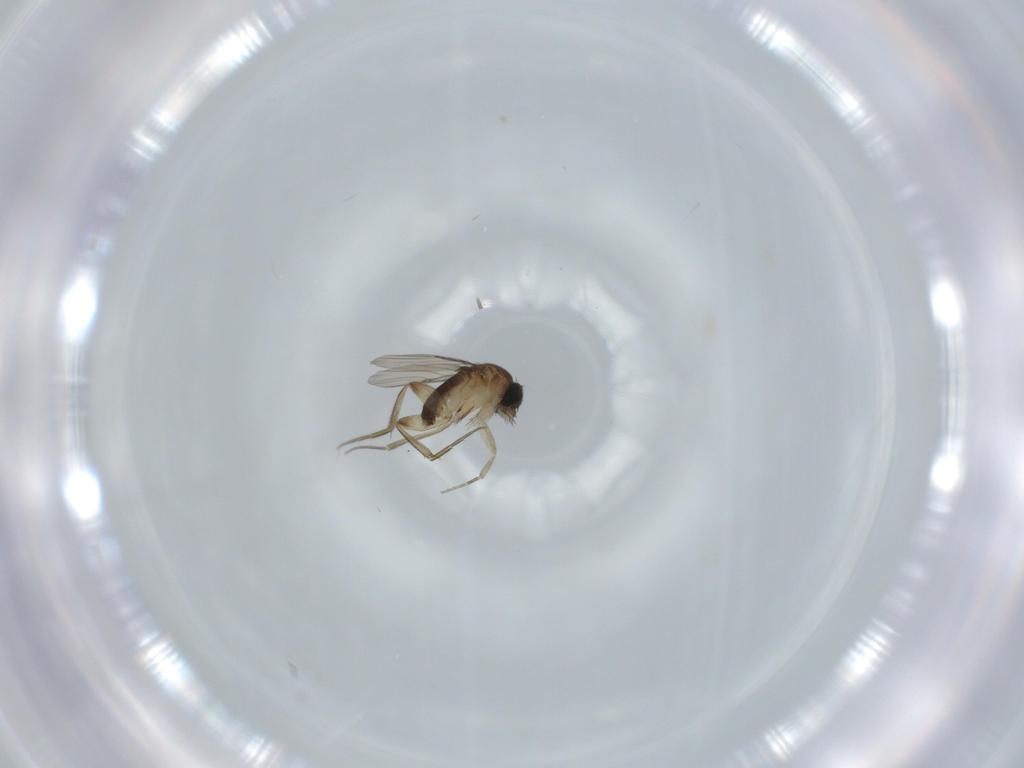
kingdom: Animalia
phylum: Arthropoda
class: Insecta
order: Diptera
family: Phoridae
